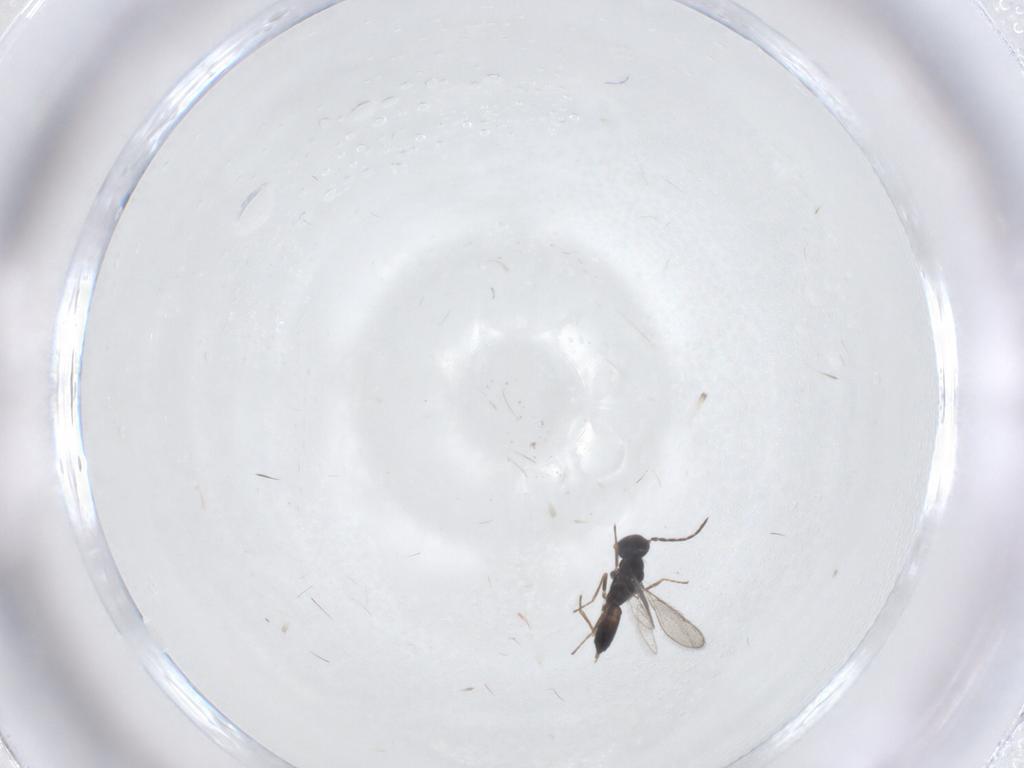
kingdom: Animalia
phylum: Arthropoda
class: Insecta
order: Hymenoptera
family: Eulophidae
